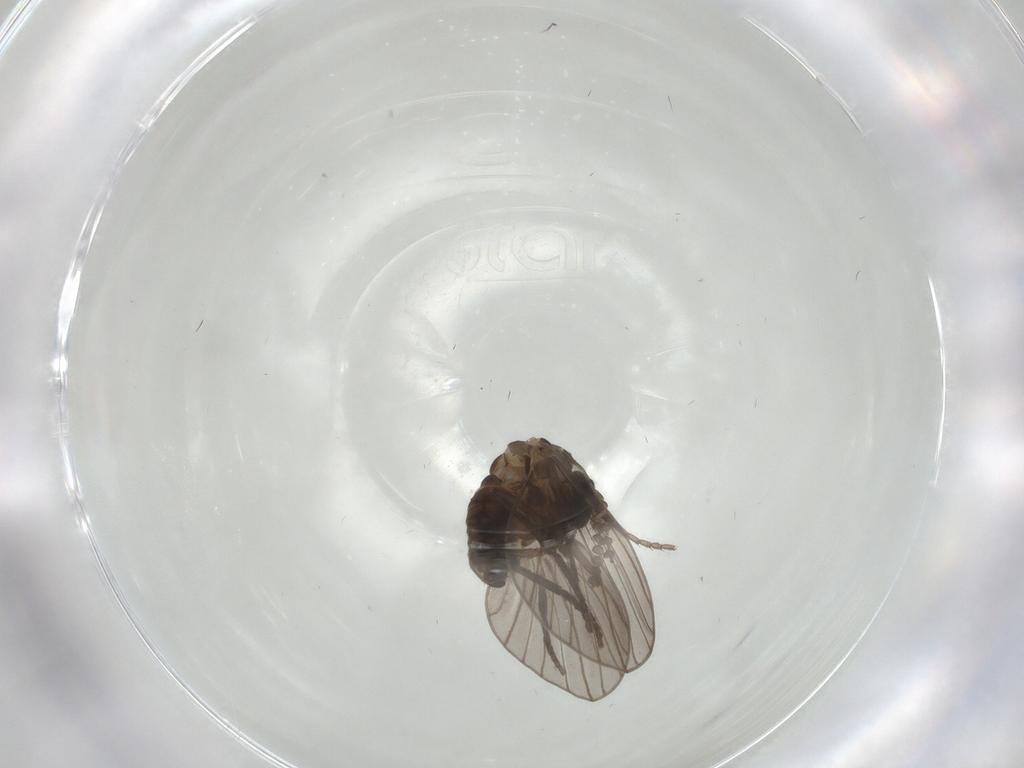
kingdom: Animalia
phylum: Arthropoda
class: Insecta
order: Diptera
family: Psychodidae
